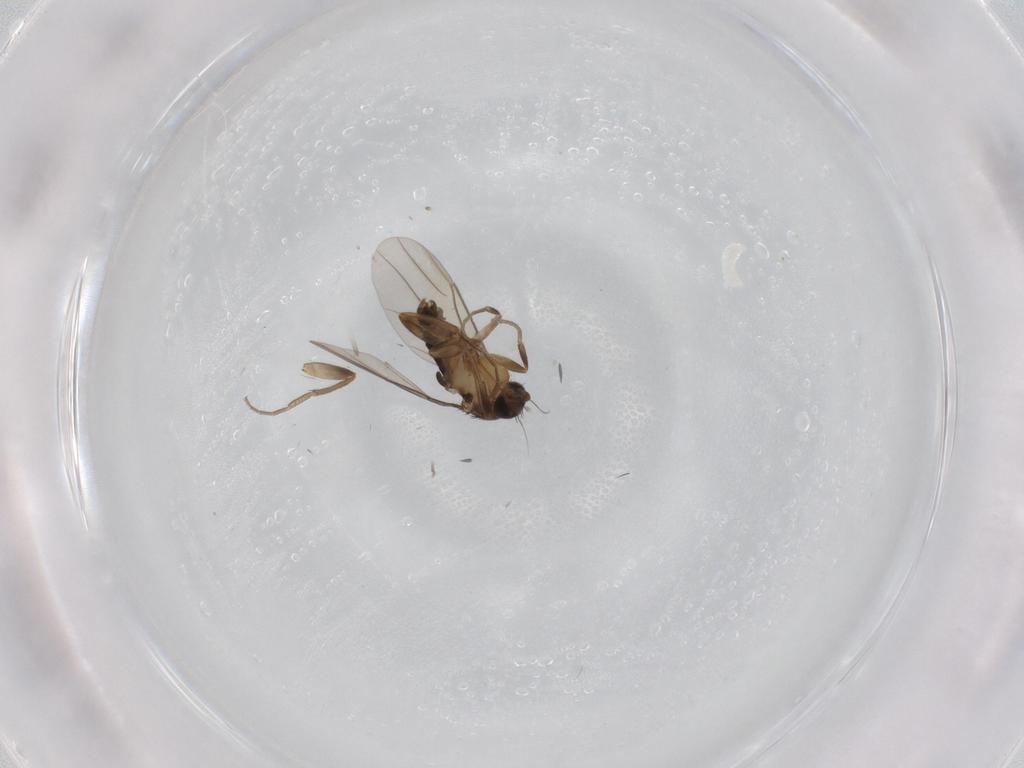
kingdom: Animalia
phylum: Arthropoda
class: Insecta
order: Diptera
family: Phoridae
